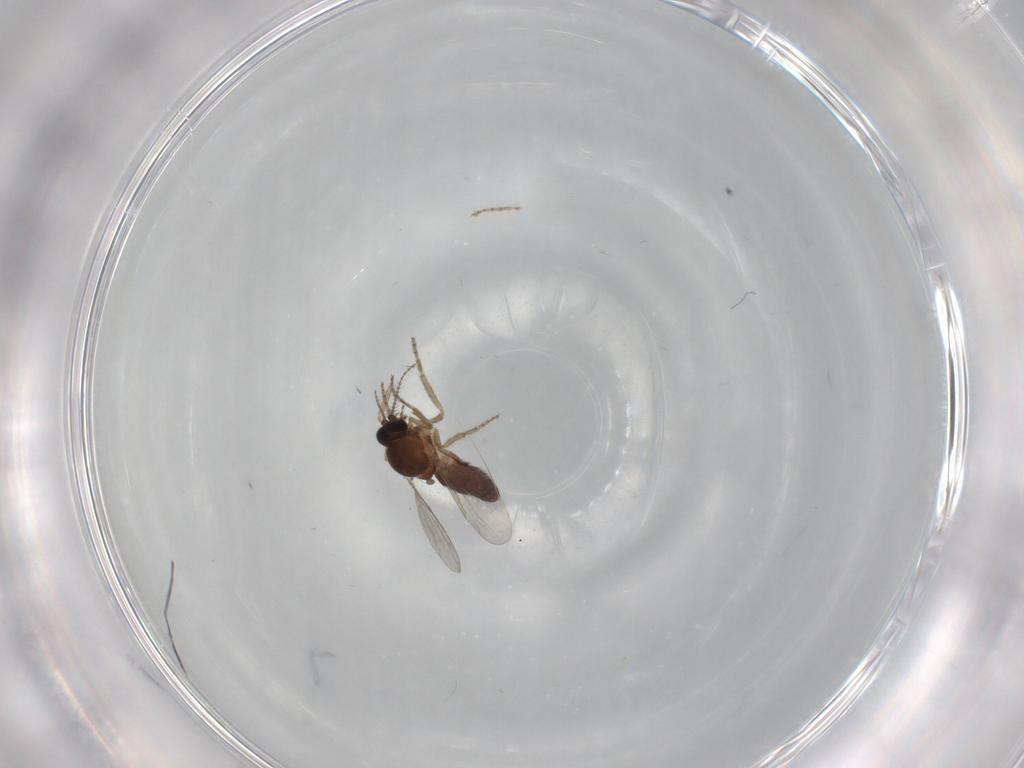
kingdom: Animalia
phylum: Arthropoda
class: Insecta
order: Diptera
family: Ceratopogonidae
